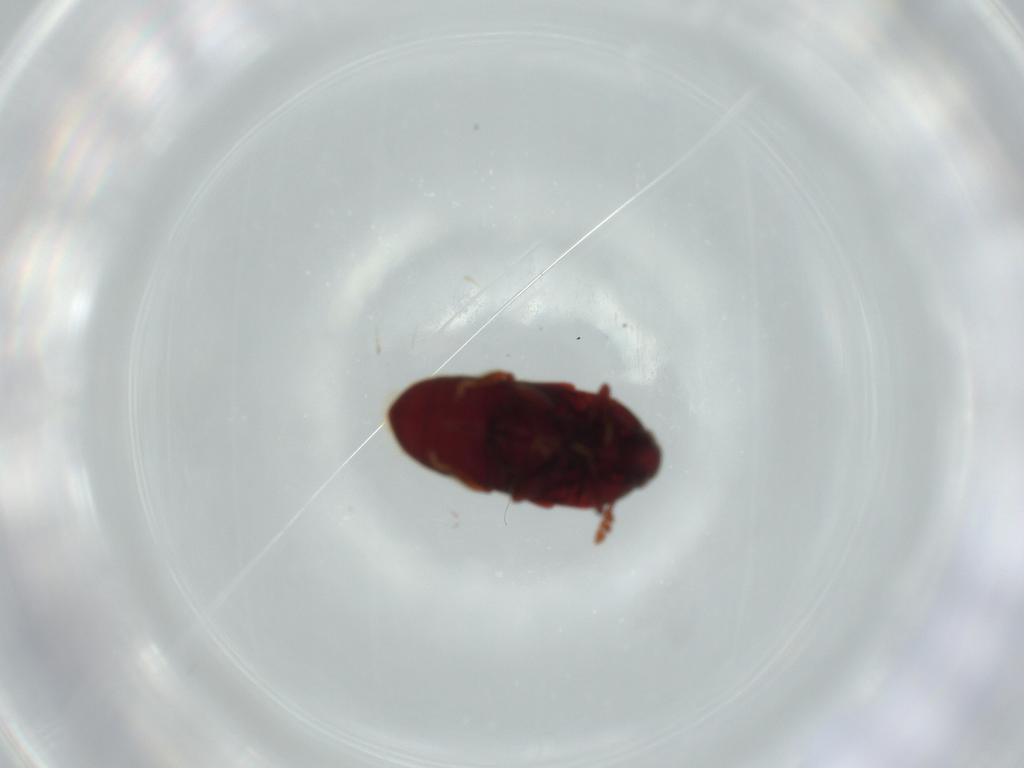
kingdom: Animalia
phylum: Arthropoda
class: Insecta
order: Coleoptera
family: Throscidae
